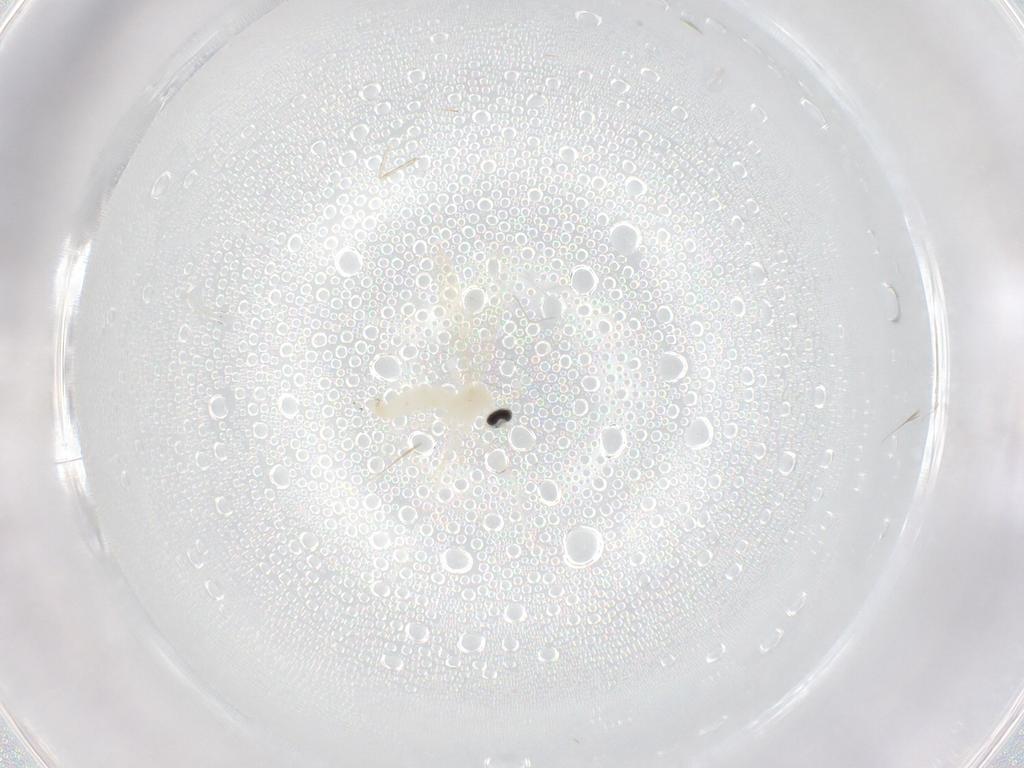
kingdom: Animalia
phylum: Arthropoda
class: Insecta
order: Diptera
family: Cecidomyiidae
